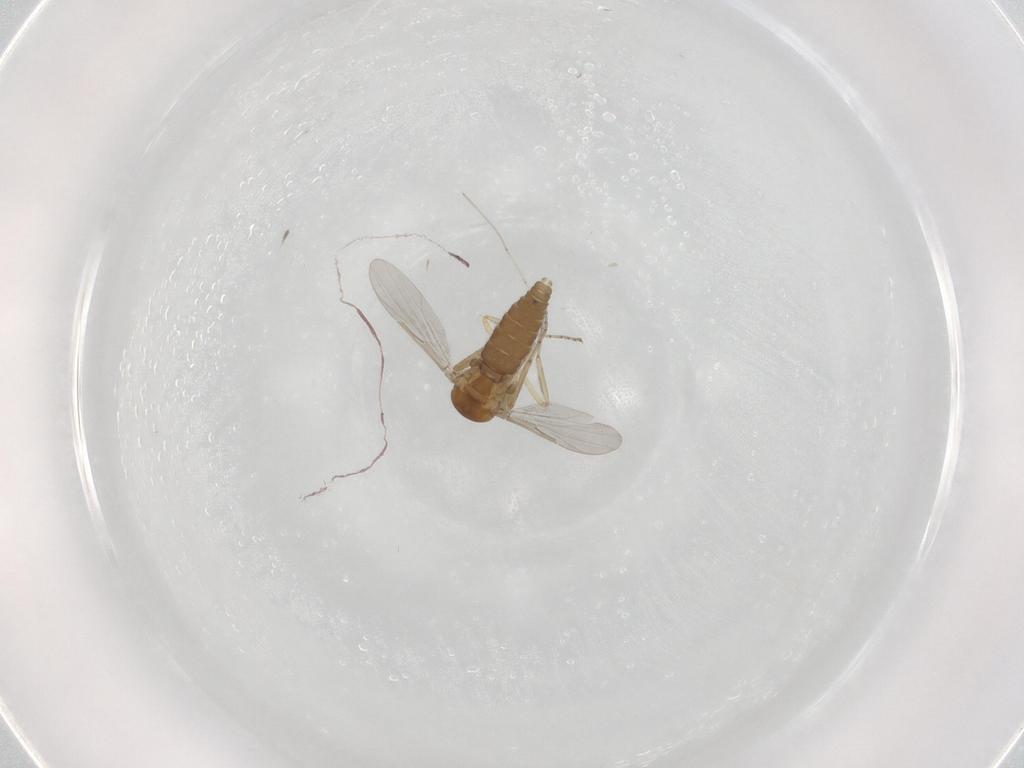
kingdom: Animalia
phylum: Arthropoda
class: Insecta
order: Diptera
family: Ceratopogonidae
